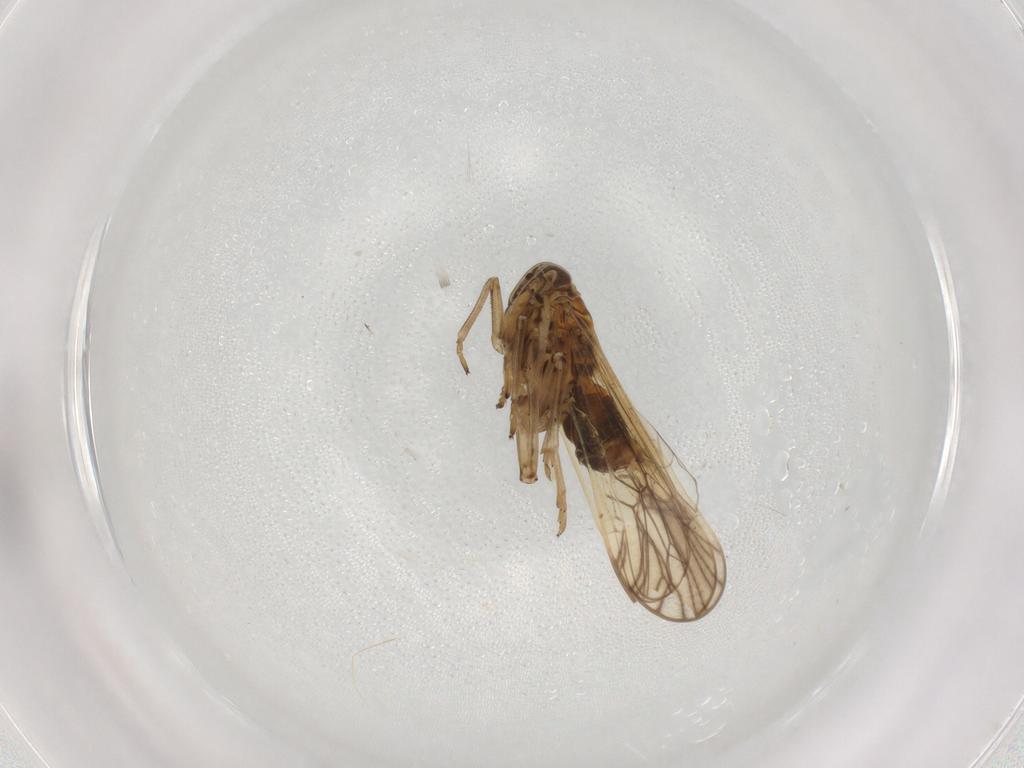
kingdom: Animalia
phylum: Arthropoda
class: Insecta
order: Hemiptera
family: Delphacidae
